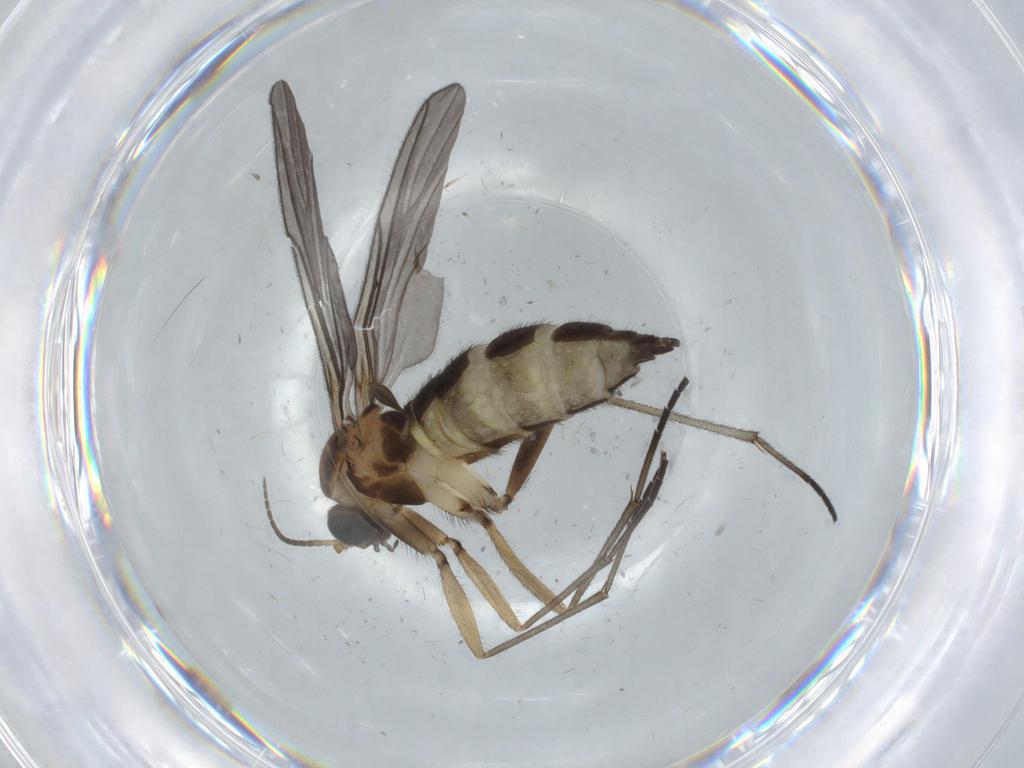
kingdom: Animalia
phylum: Arthropoda
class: Insecta
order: Diptera
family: Sciaridae
